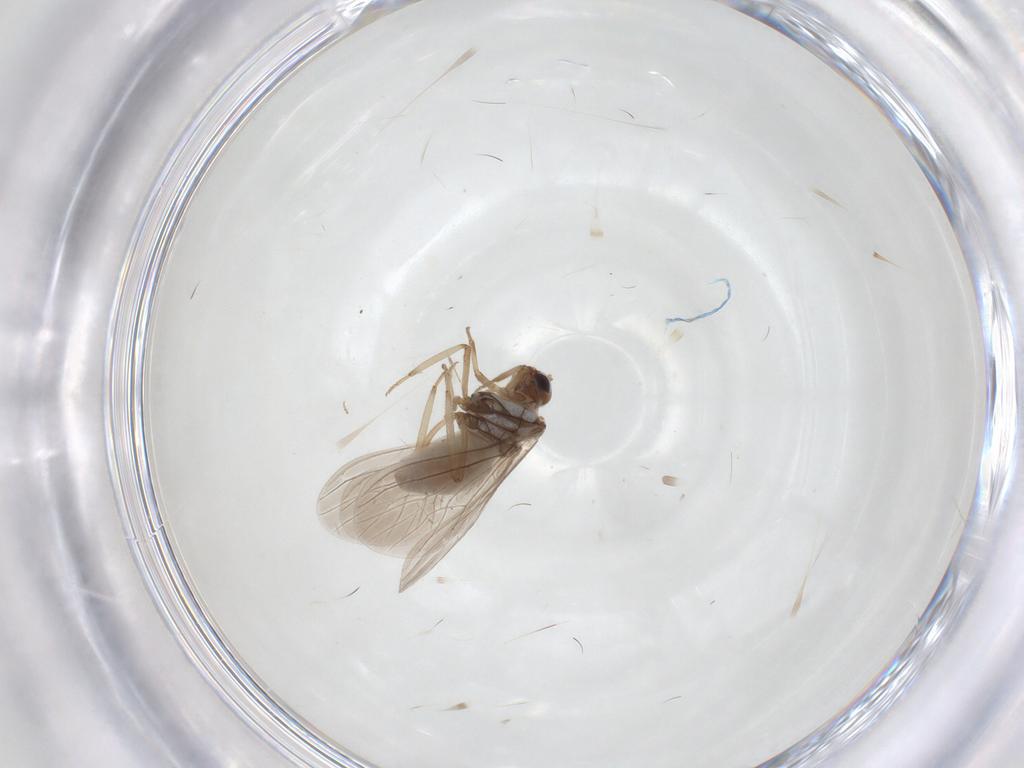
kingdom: Animalia
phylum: Arthropoda
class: Insecta
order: Neuroptera
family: Coniopterygidae
